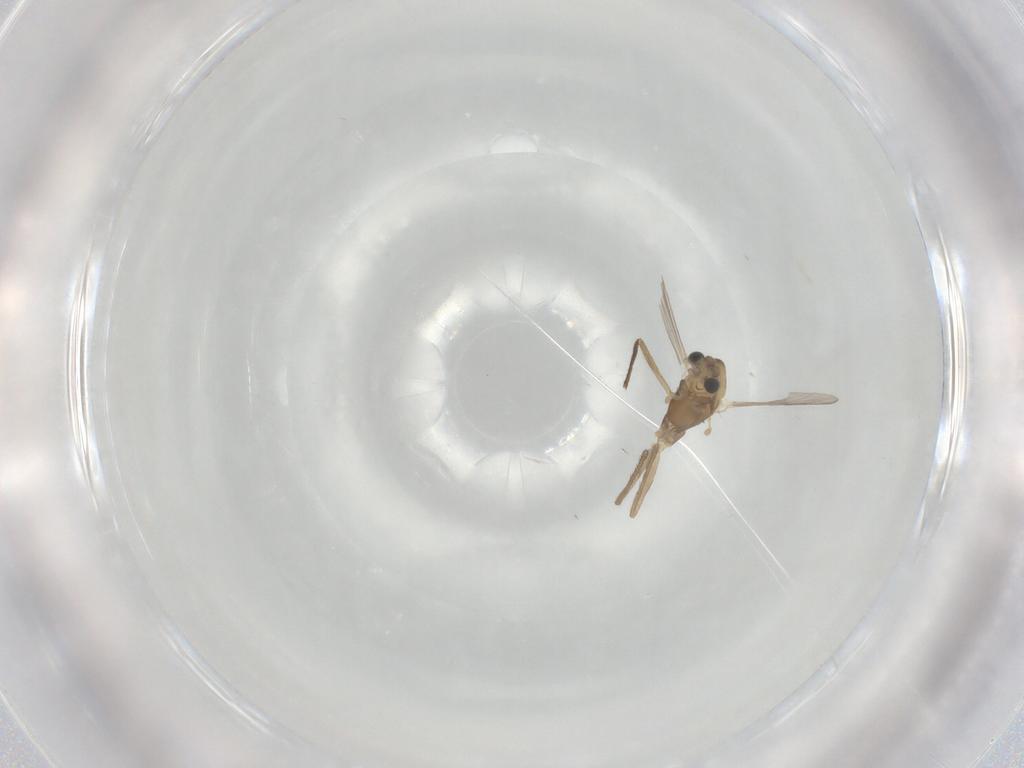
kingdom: Animalia
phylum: Arthropoda
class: Insecta
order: Diptera
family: Chironomidae
